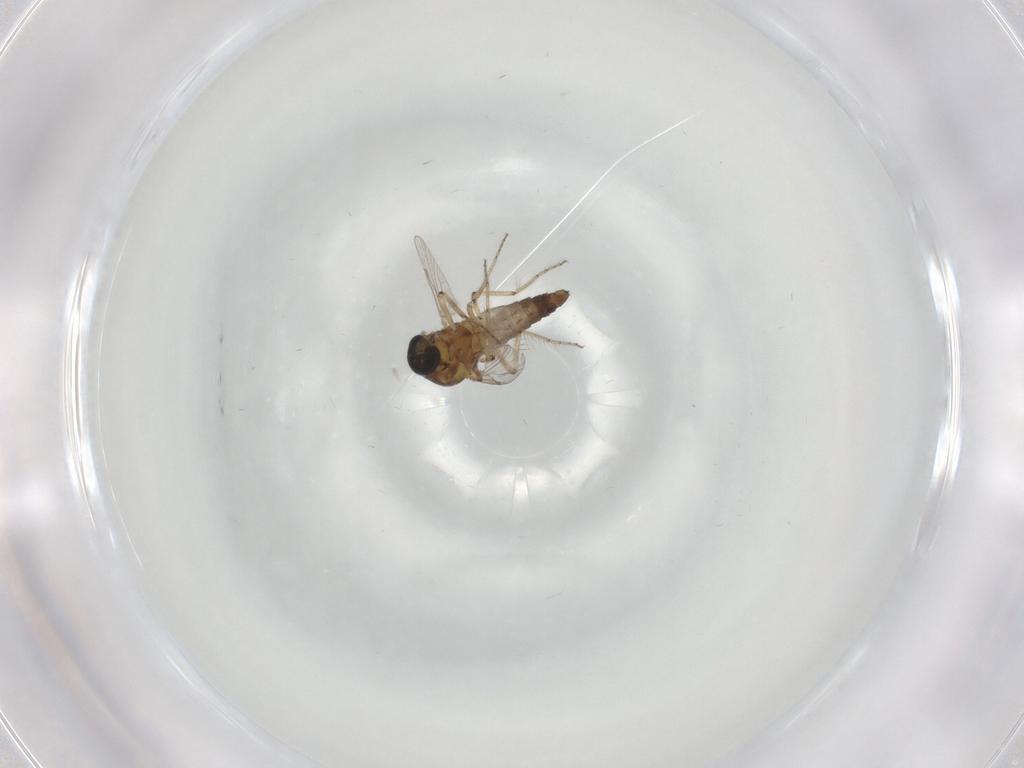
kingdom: Animalia
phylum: Arthropoda
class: Insecta
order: Diptera
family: Ceratopogonidae
